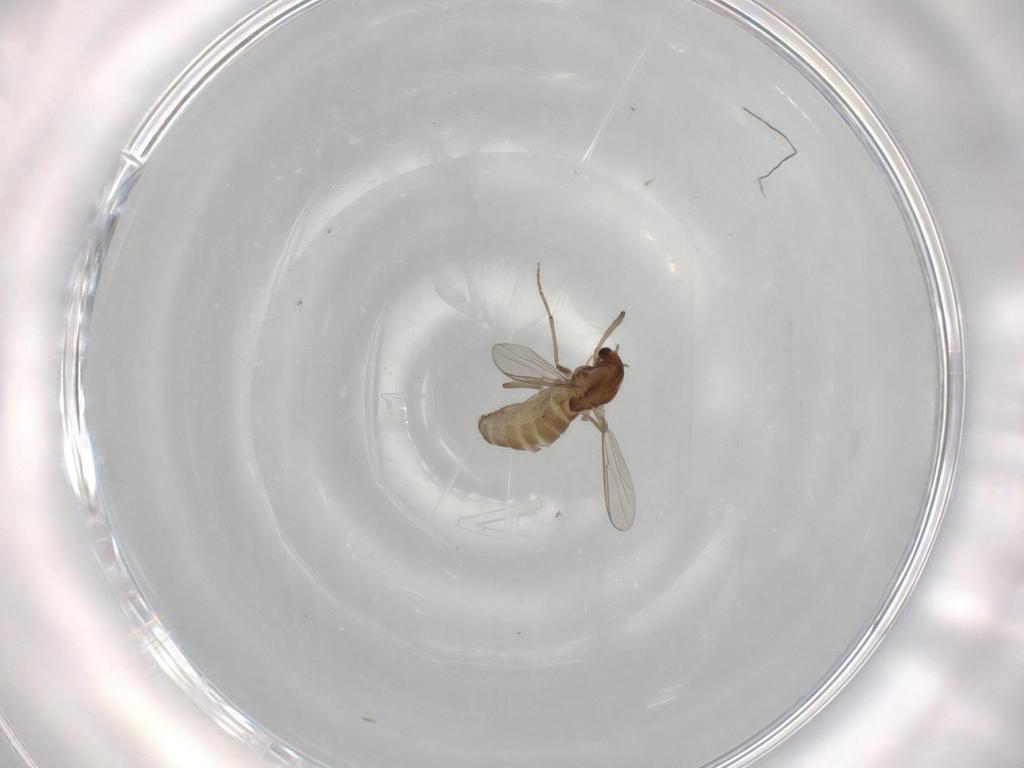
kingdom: Animalia
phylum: Arthropoda
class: Insecta
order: Diptera
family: Chironomidae
